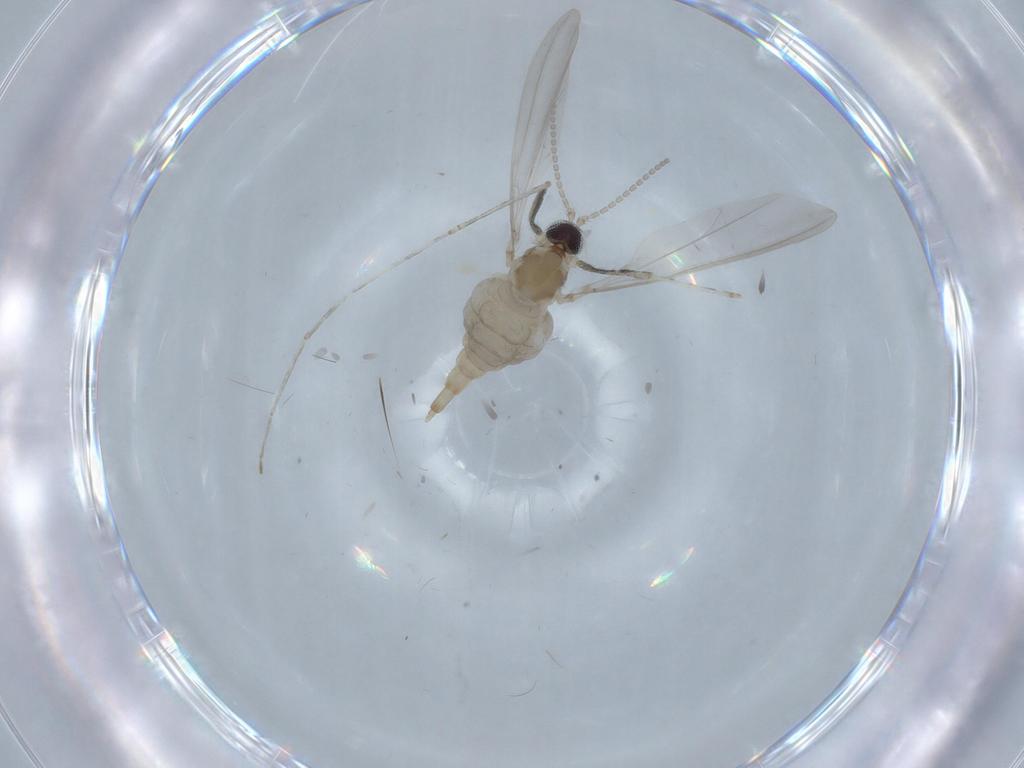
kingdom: Animalia
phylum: Arthropoda
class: Insecta
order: Diptera
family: Cecidomyiidae
